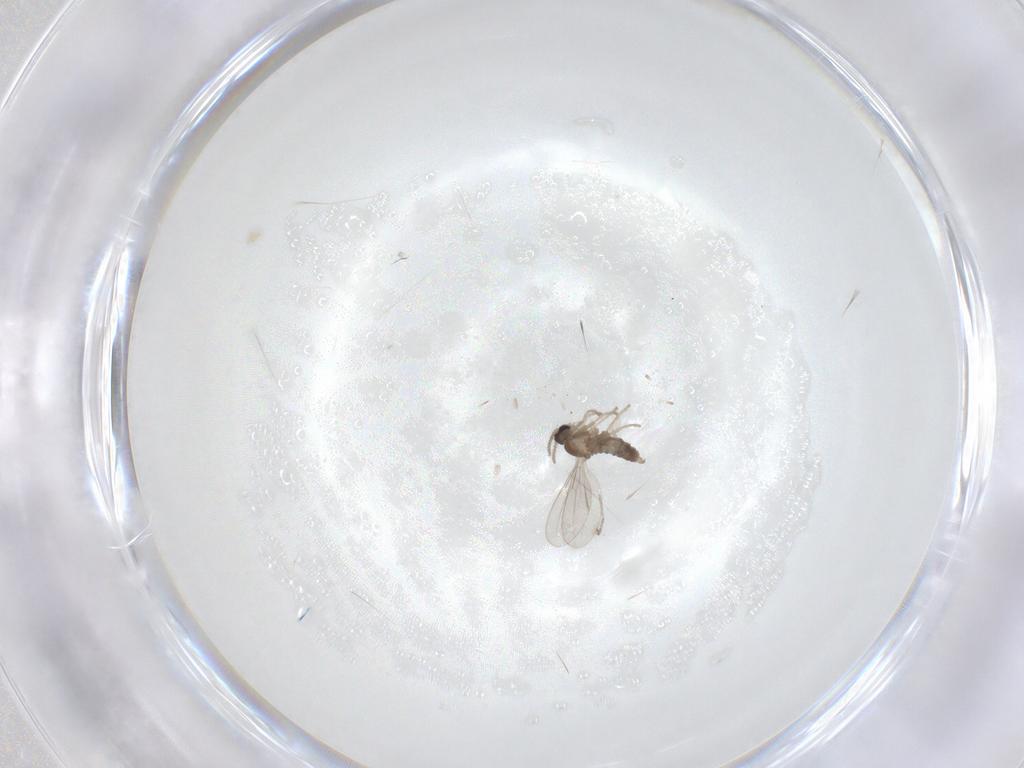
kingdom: Animalia
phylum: Arthropoda
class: Insecta
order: Diptera
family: Cecidomyiidae
